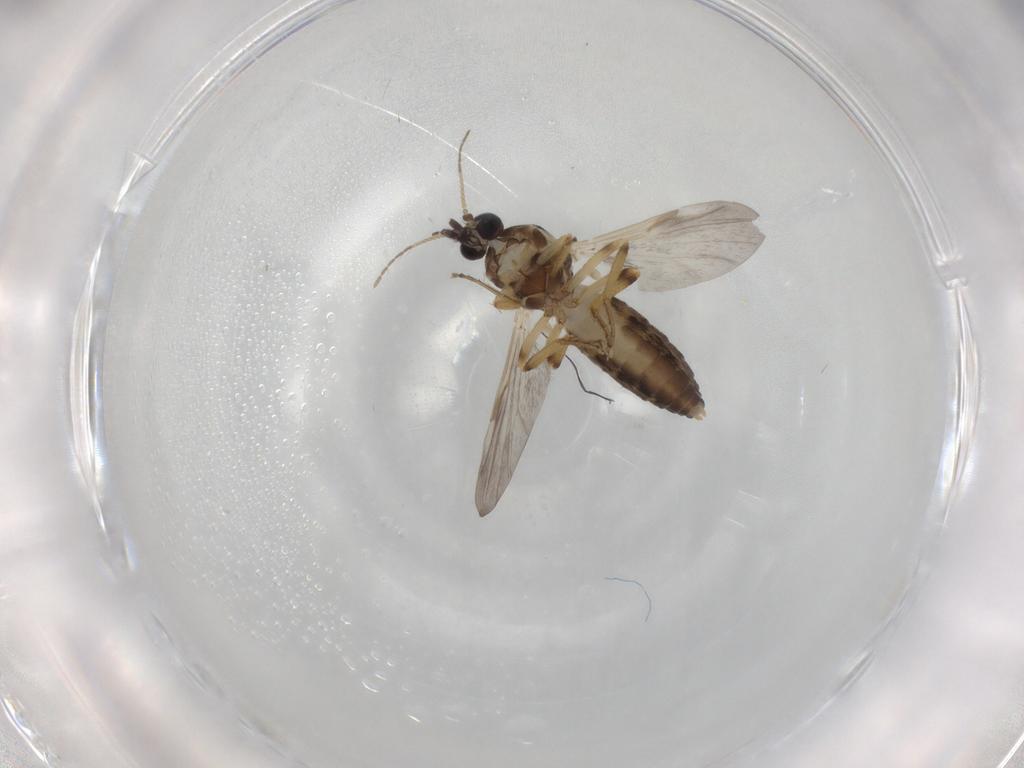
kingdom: Animalia
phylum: Arthropoda
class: Insecta
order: Diptera
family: Ceratopogonidae
